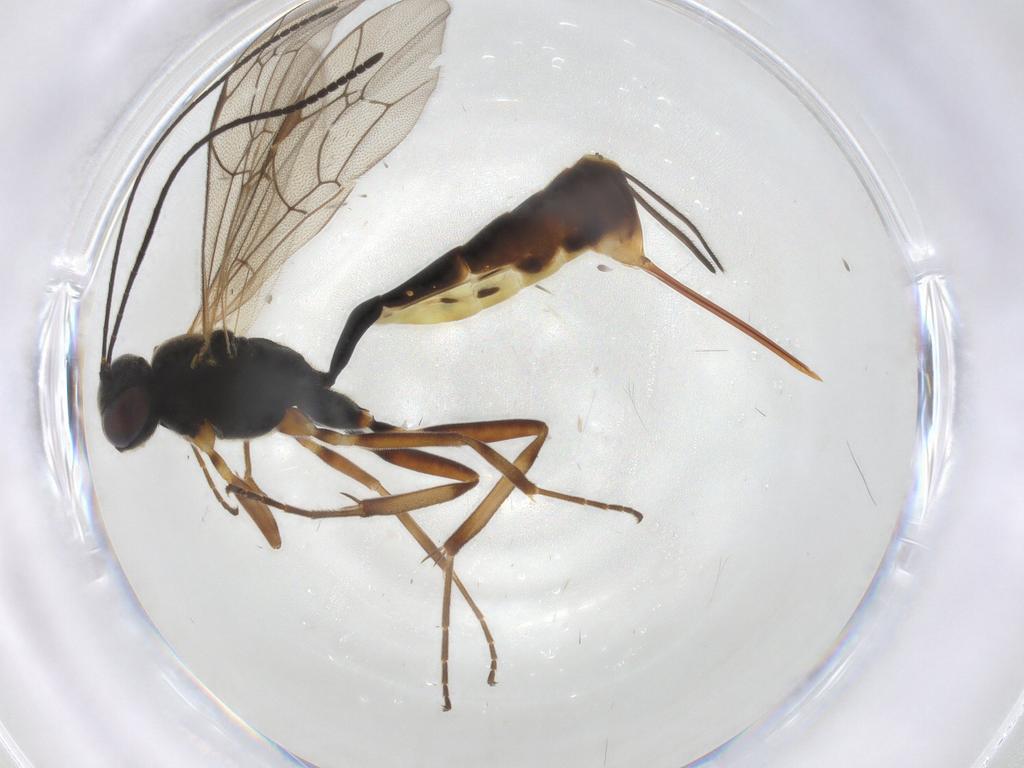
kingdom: Animalia
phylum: Arthropoda
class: Insecta
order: Hymenoptera
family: Ichneumonidae
